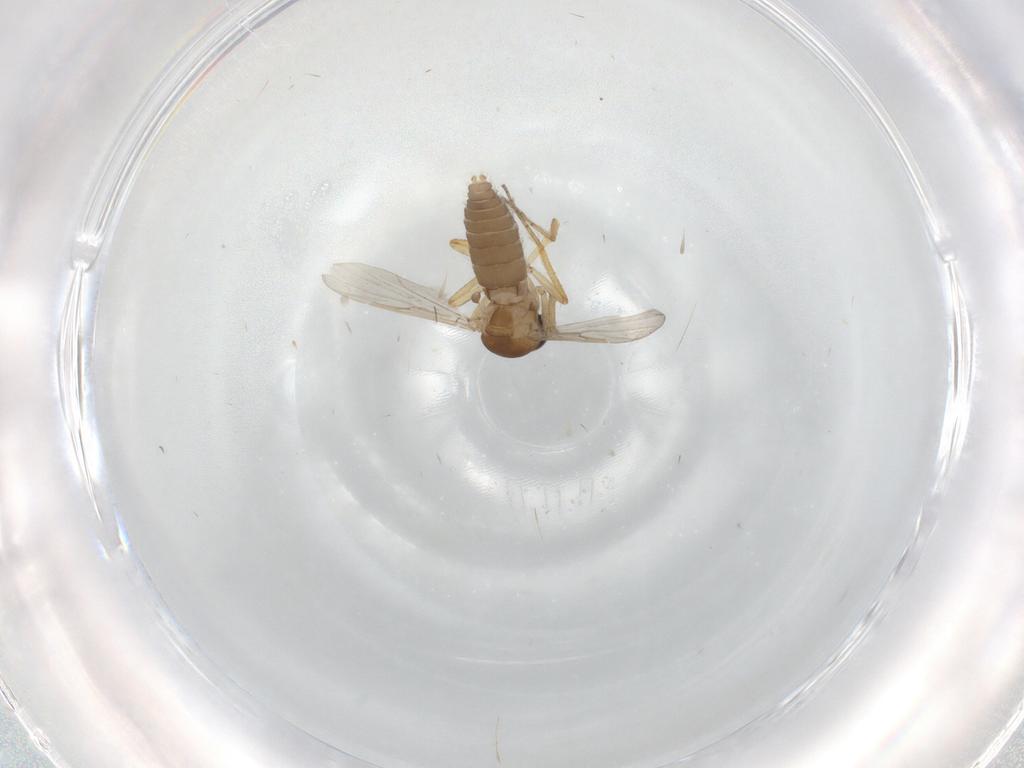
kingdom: Animalia
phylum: Arthropoda
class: Insecta
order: Diptera
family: Ceratopogonidae
